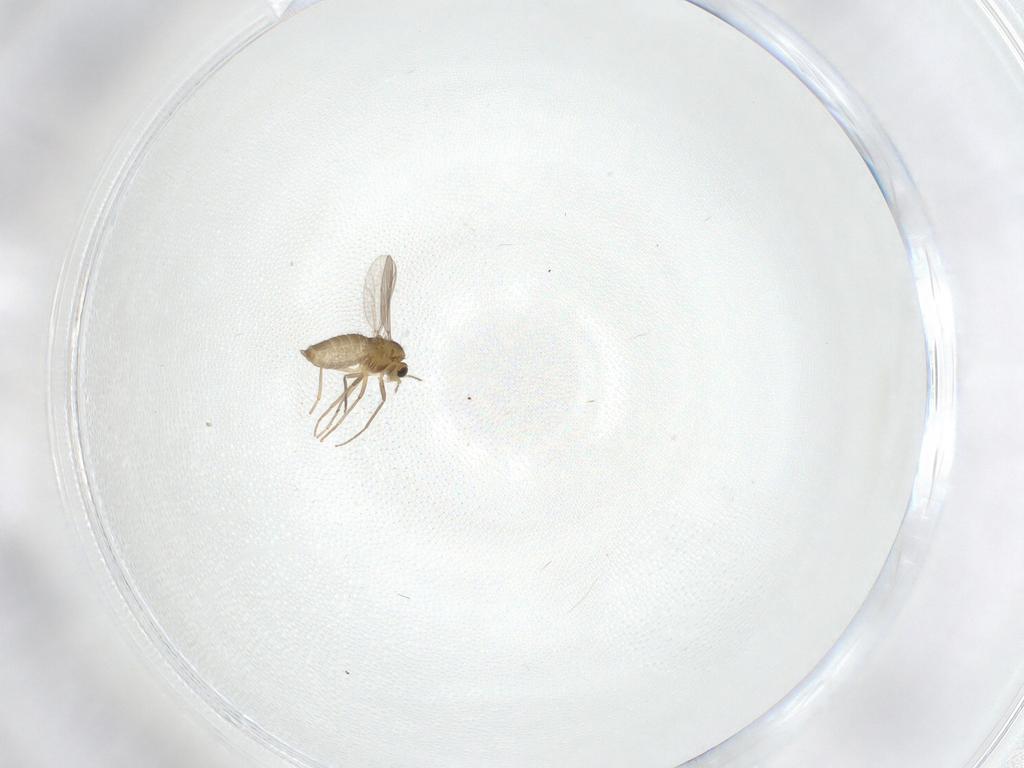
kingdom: Animalia
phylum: Arthropoda
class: Insecta
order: Diptera
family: Chironomidae
